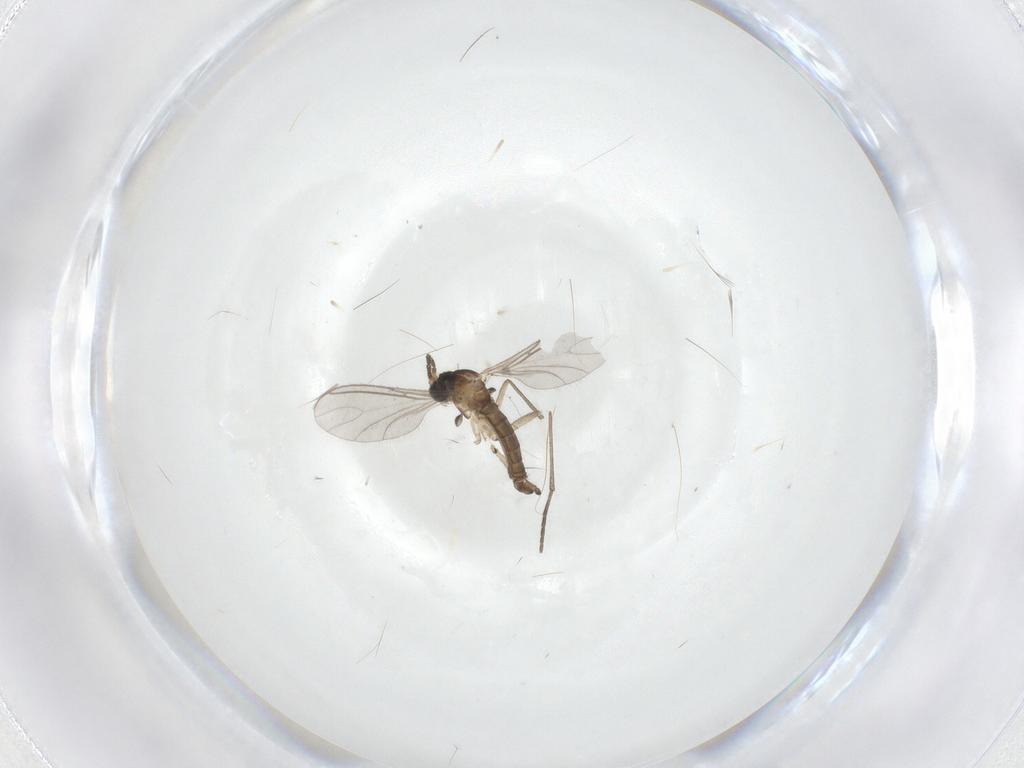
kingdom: Animalia
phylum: Arthropoda
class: Insecta
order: Diptera
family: Sciaridae
